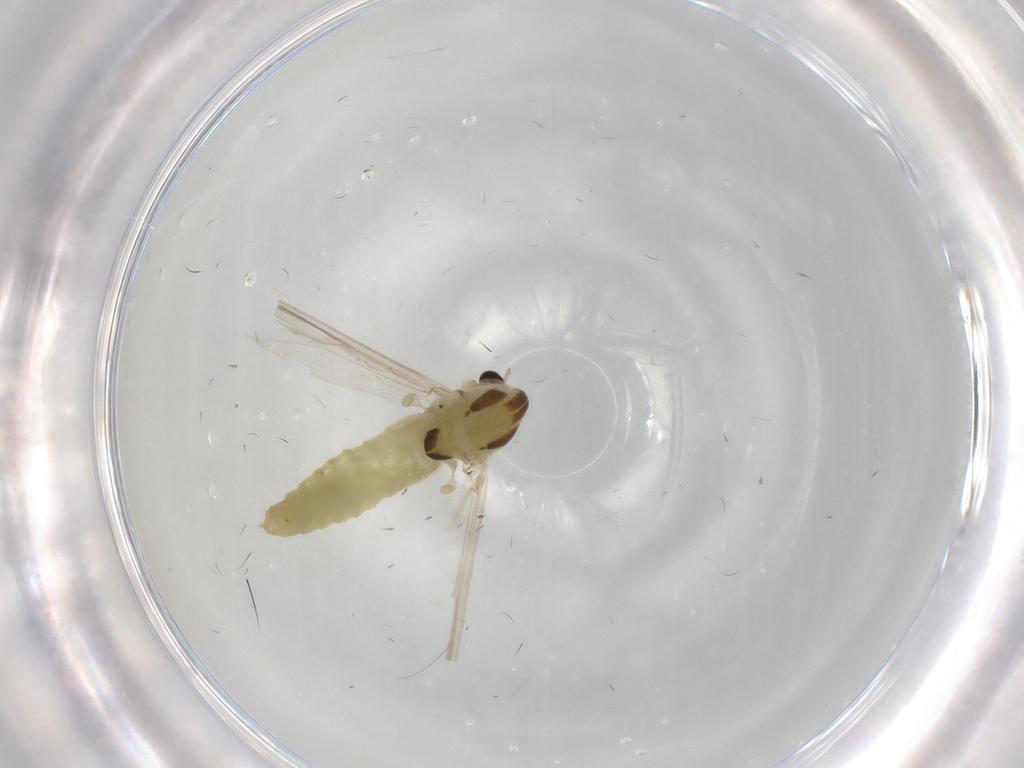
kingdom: Animalia
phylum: Arthropoda
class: Insecta
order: Diptera
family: Chironomidae
